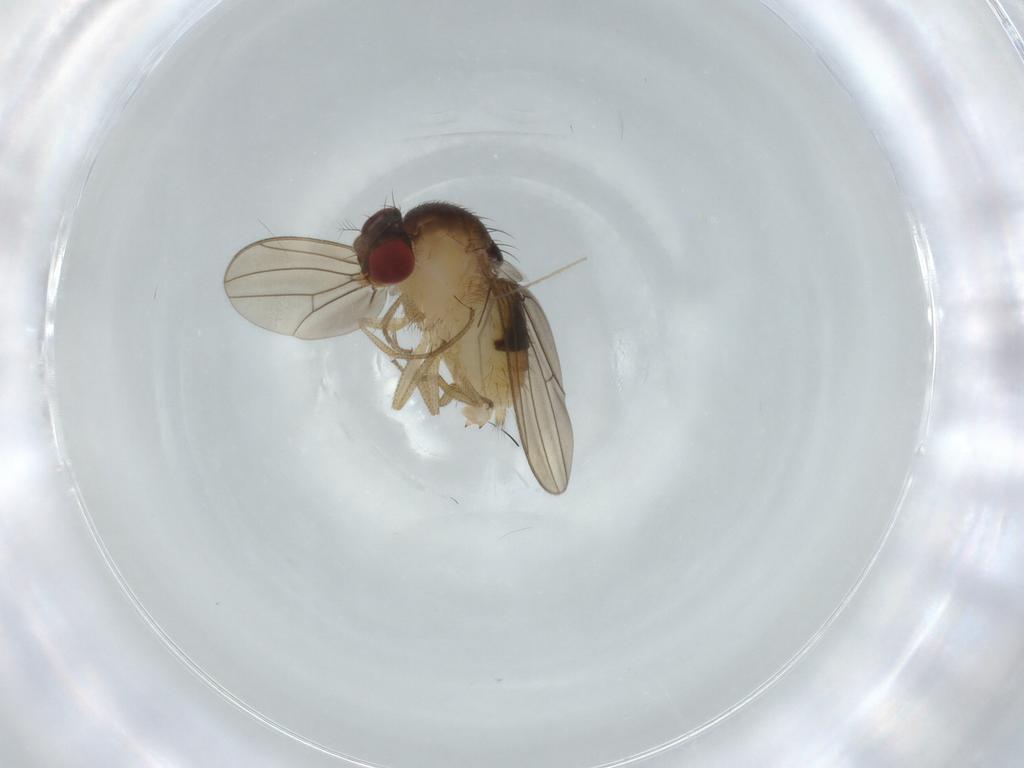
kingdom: Animalia
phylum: Arthropoda
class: Insecta
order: Diptera
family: Drosophilidae
